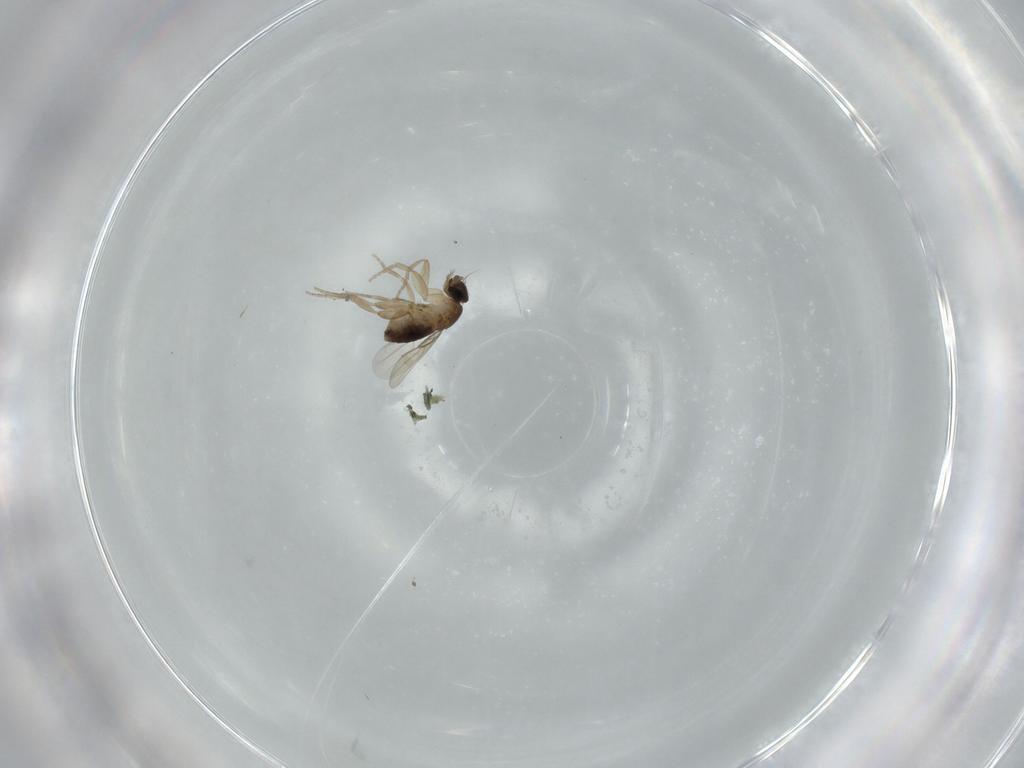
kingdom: Animalia
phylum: Arthropoda
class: Insecta
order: Diptera
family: Phoridae
